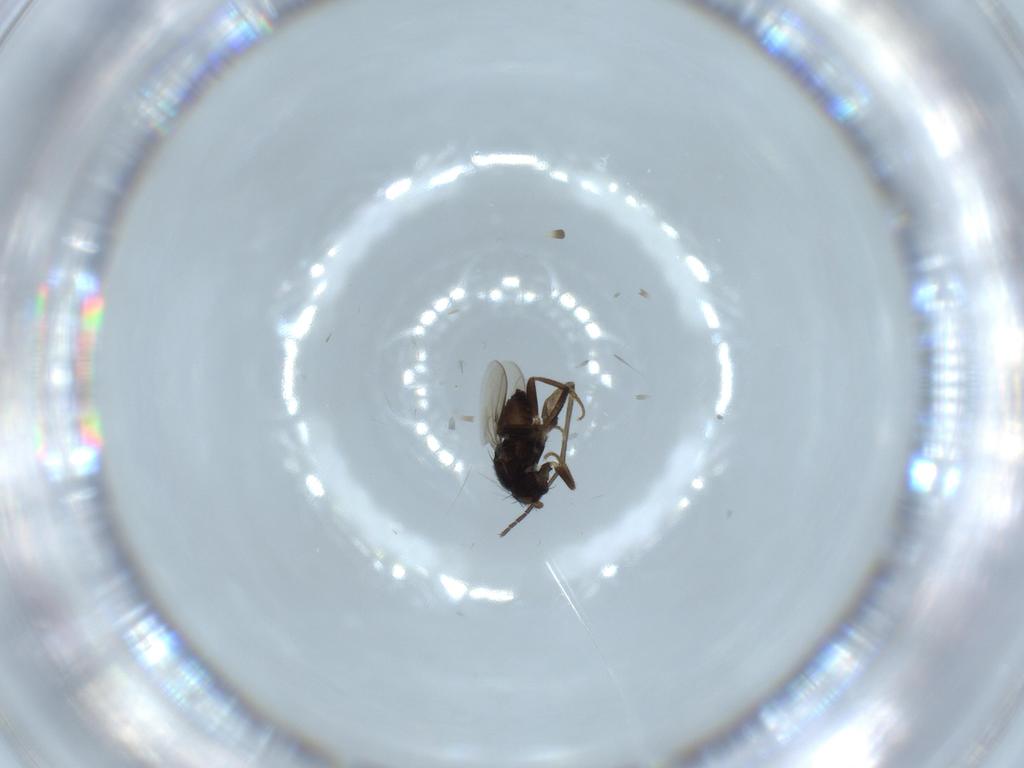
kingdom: Animalia
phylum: Arthropoda
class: Insecta
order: Diptera
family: Sphaeroceridae
